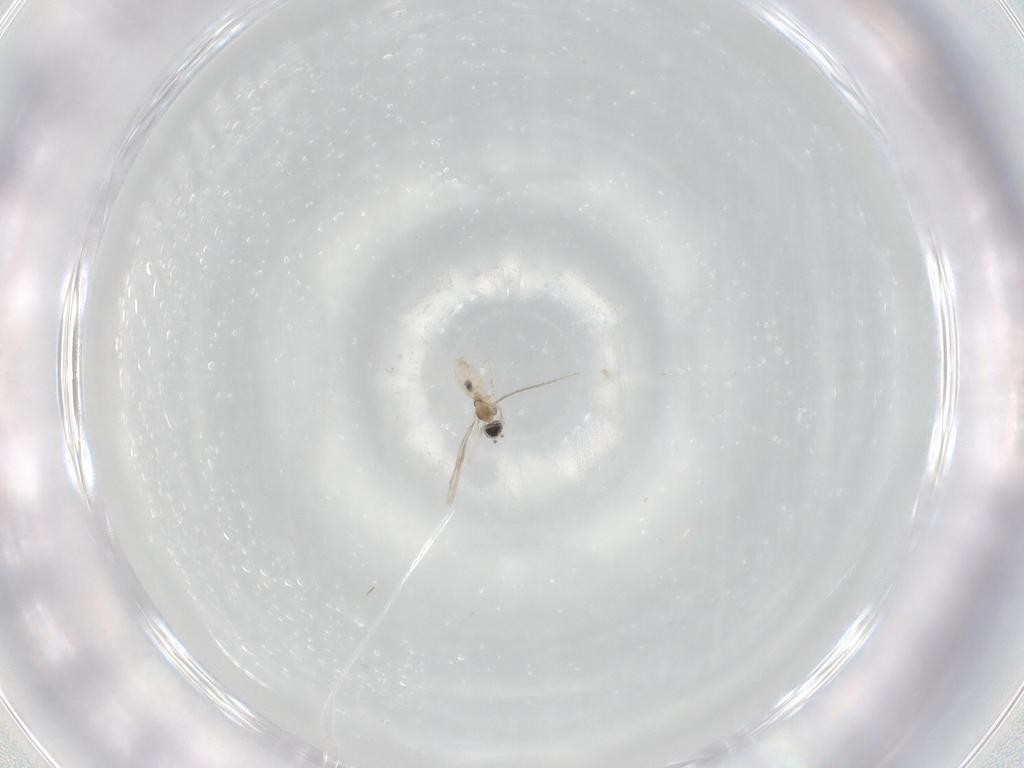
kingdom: Animalia
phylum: Arthropoda
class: Insecta
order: Diptera
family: Cecidomyiidae
